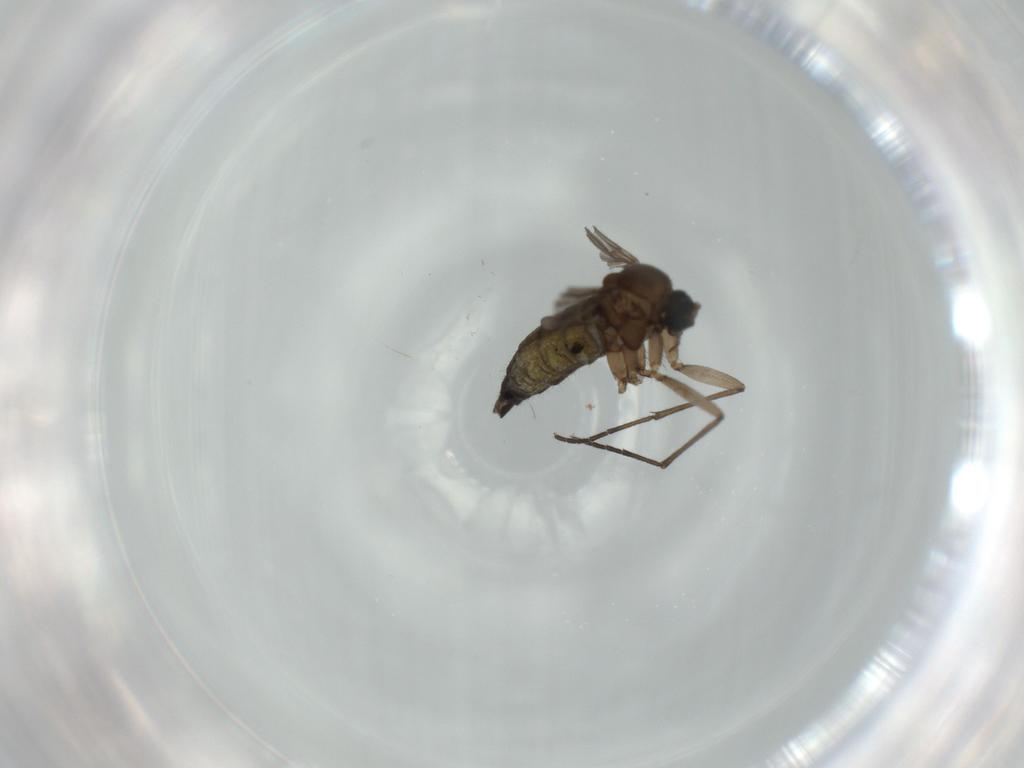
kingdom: Animalia
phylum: Arthropoda
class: Insecta
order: Diptera
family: Sciaridae
